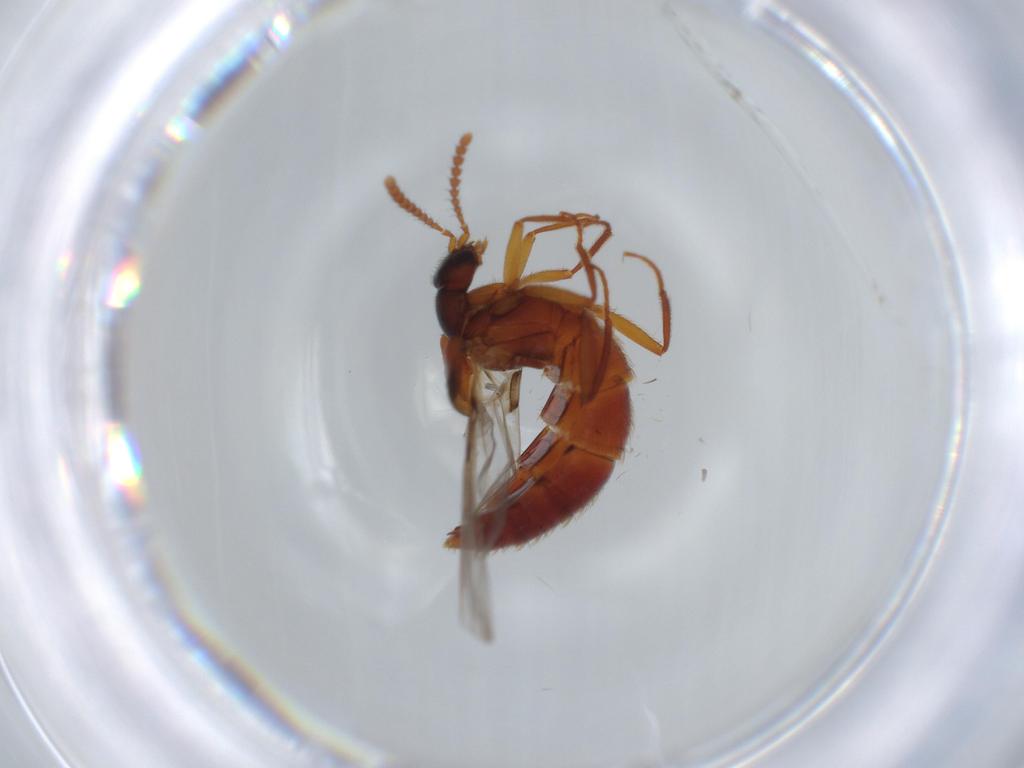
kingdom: Animalia
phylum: Arthropoda
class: Insecta
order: Coleoptera
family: Staphylinidae
